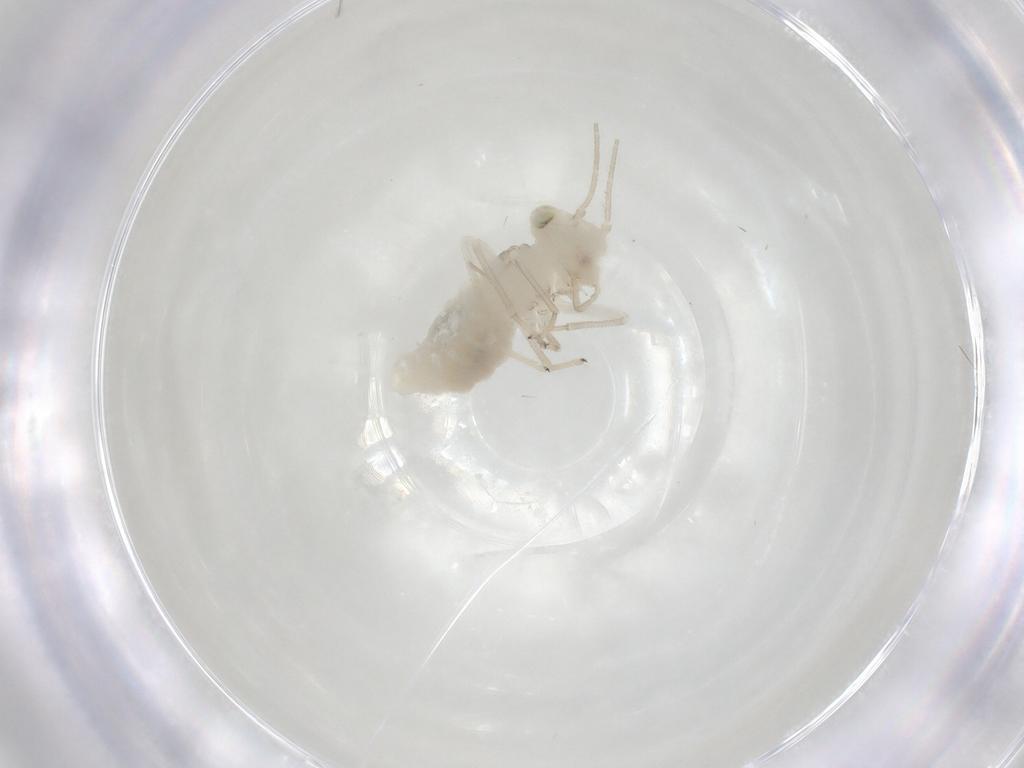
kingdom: Animalia
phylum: Arthropoda
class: Insecta
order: Psocodea
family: Caeciliusidae
